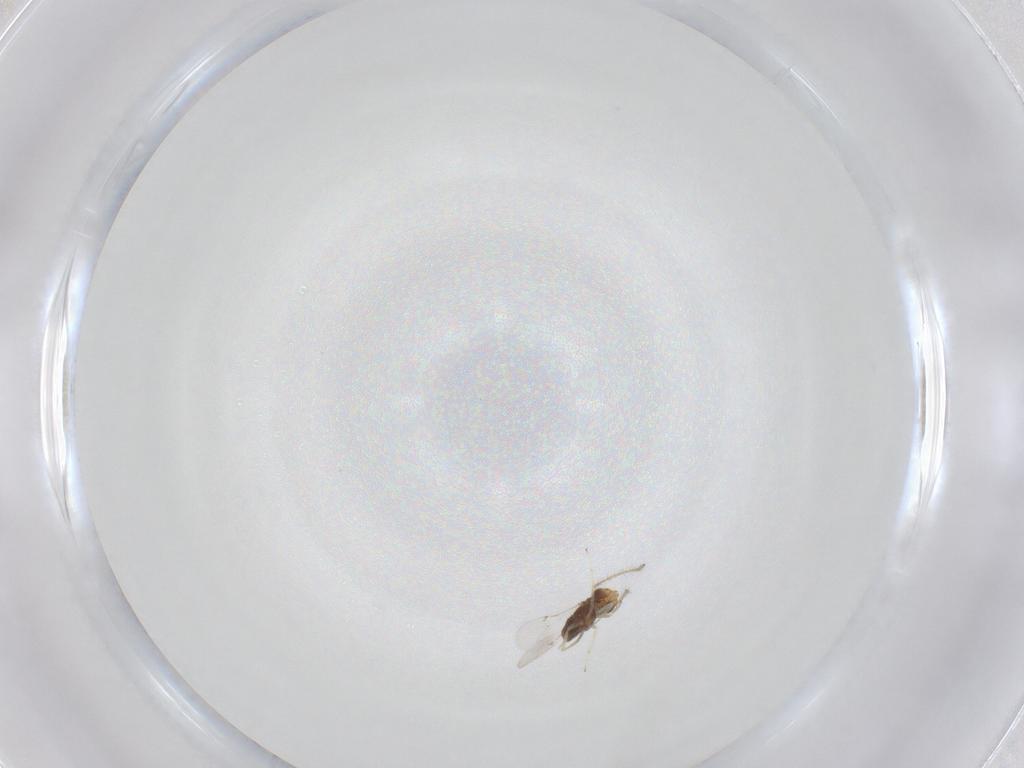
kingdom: Animalia
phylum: Arthropoda
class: Insecta
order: Hymenoptera
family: Encyrtidae
